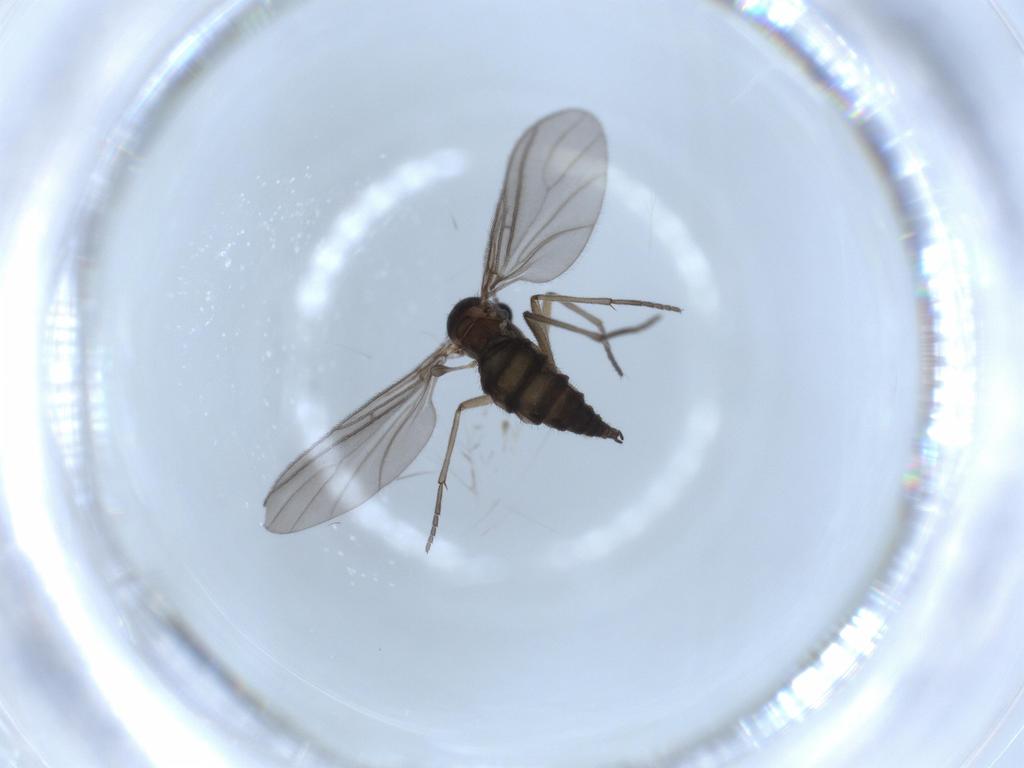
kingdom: Animalia
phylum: Arthropoda
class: Insecta
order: Diptera
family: Sciaridae
